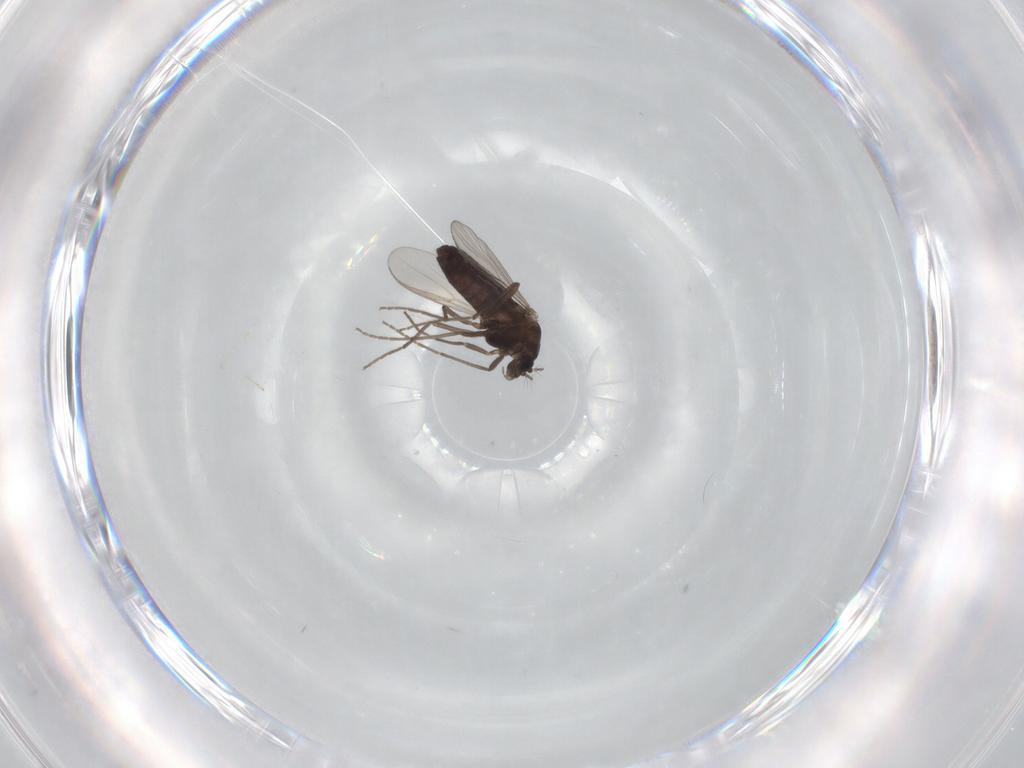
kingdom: Animalia
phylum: Arthropoda
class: Insecta
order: Diptera
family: Chironomidae
